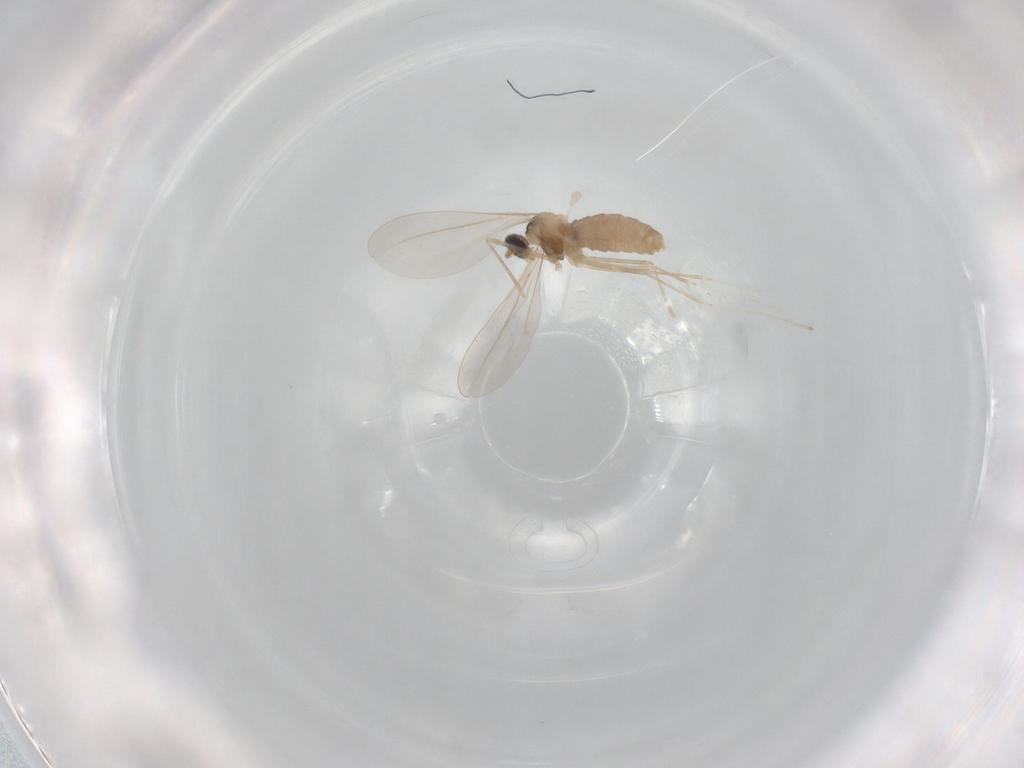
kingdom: Animalia
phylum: Arthropoda
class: Insecta
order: Diptera
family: Cecidomyiidae
